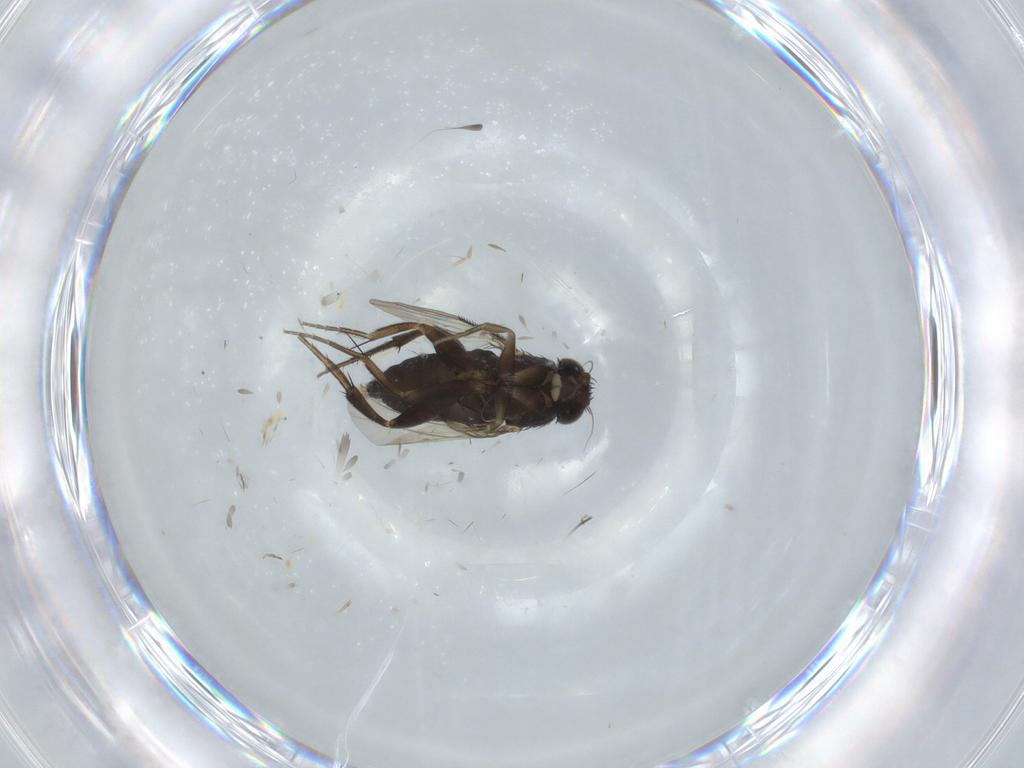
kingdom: Animalia
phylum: Arthropoda
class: Insecta
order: Diptera
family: Phoridae
